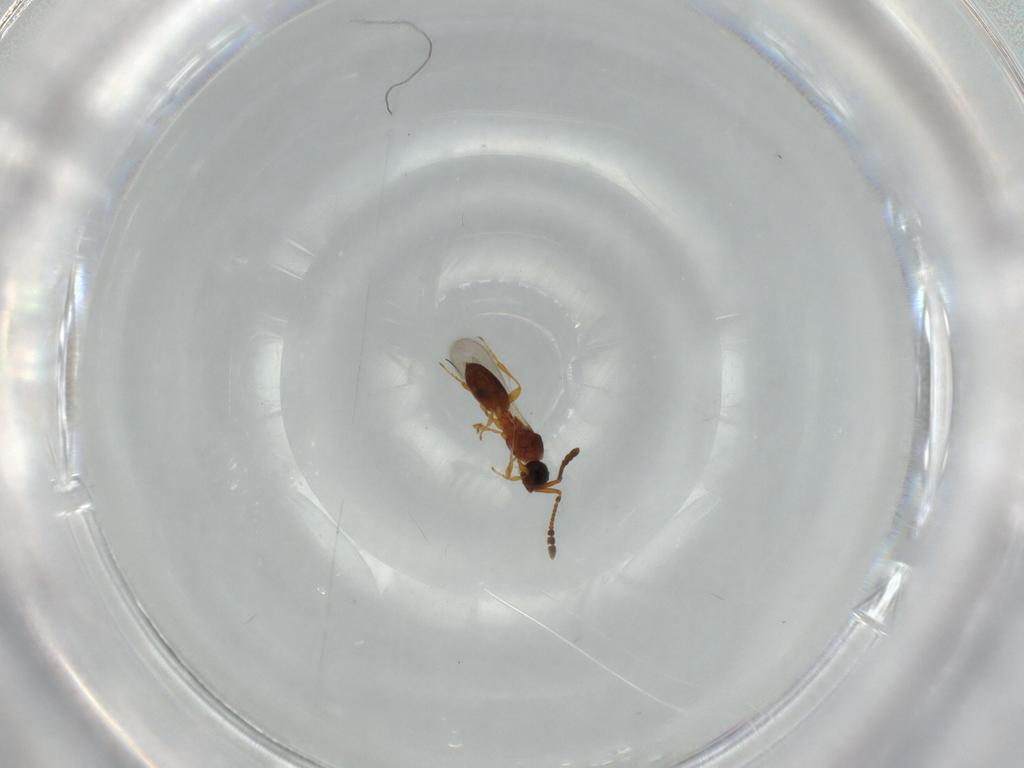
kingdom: Animalia
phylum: Arthropoda
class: Insecta
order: Hymenoptera
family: Diapriidae
